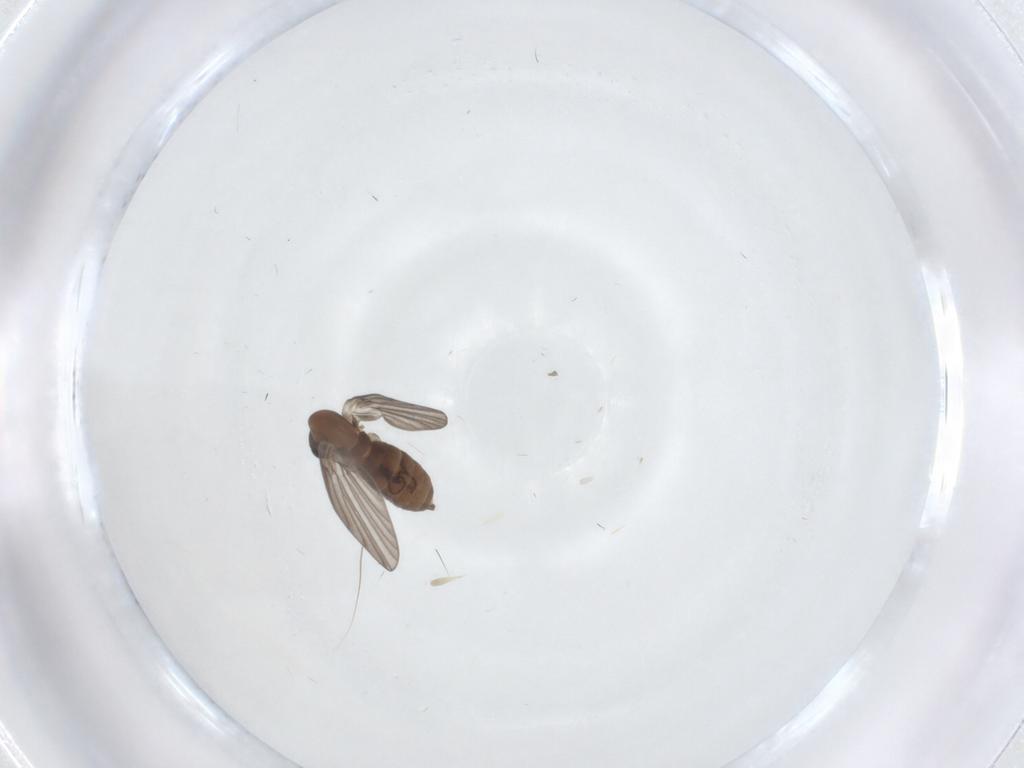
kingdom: Animalia
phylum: Arthropoda
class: Insecta
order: Diptera
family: Psychodidae
